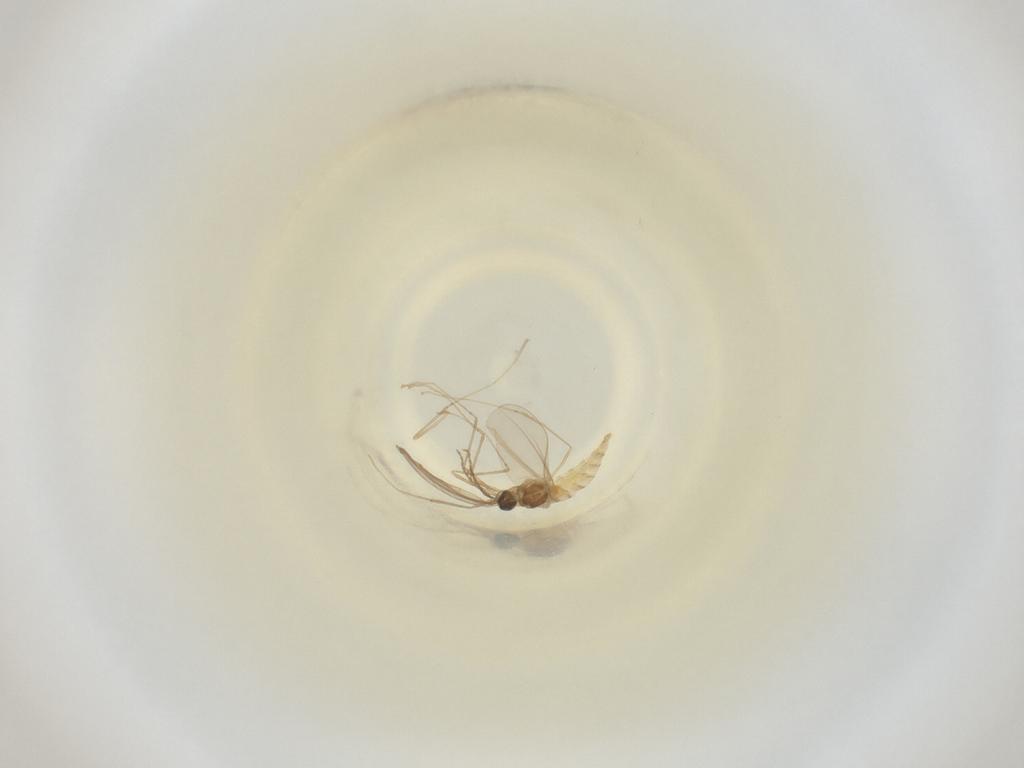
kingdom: Animalia
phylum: Arthropoda
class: Insecta
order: Diptera
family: Cecidomyiidae
